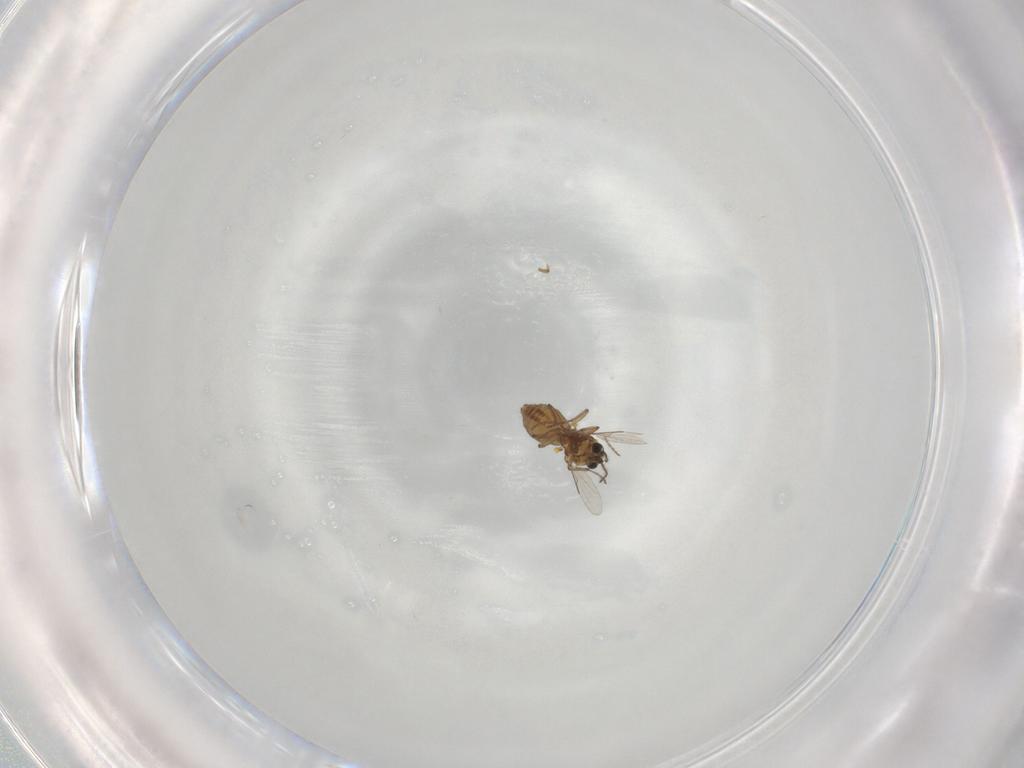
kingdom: Animalia
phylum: Arthropoda
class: Insecta
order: Diptera
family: Ceratopogonidae
